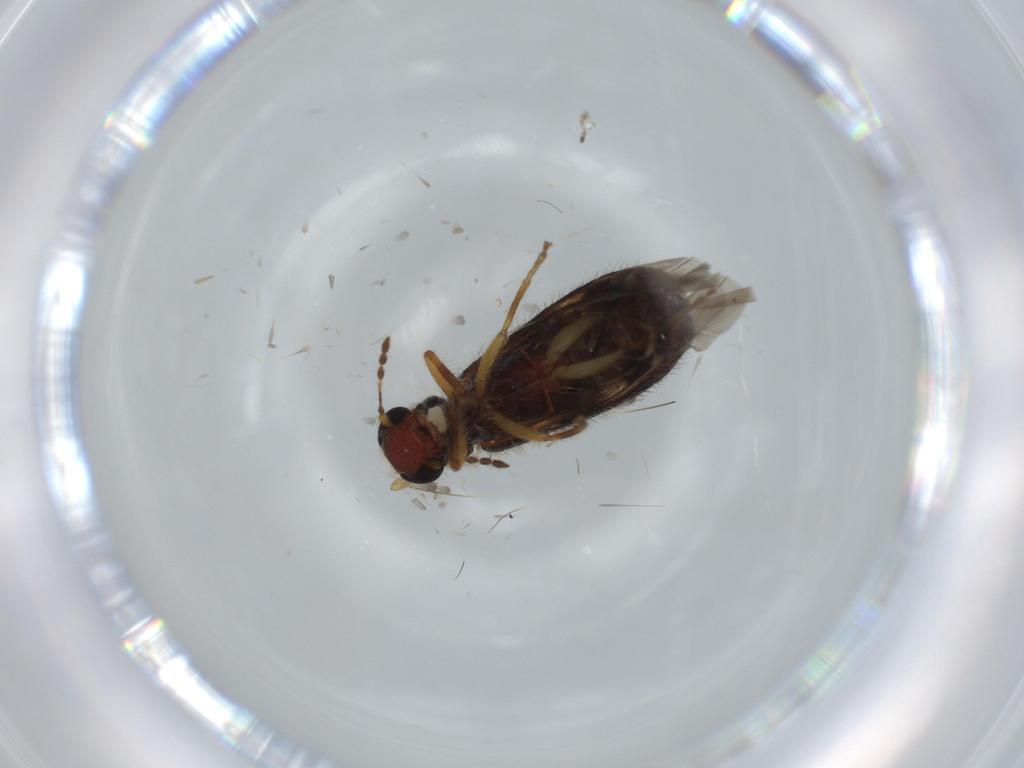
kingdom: Animalia
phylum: Arthropoda
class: Insecta
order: Coleoptera
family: Cleridae
